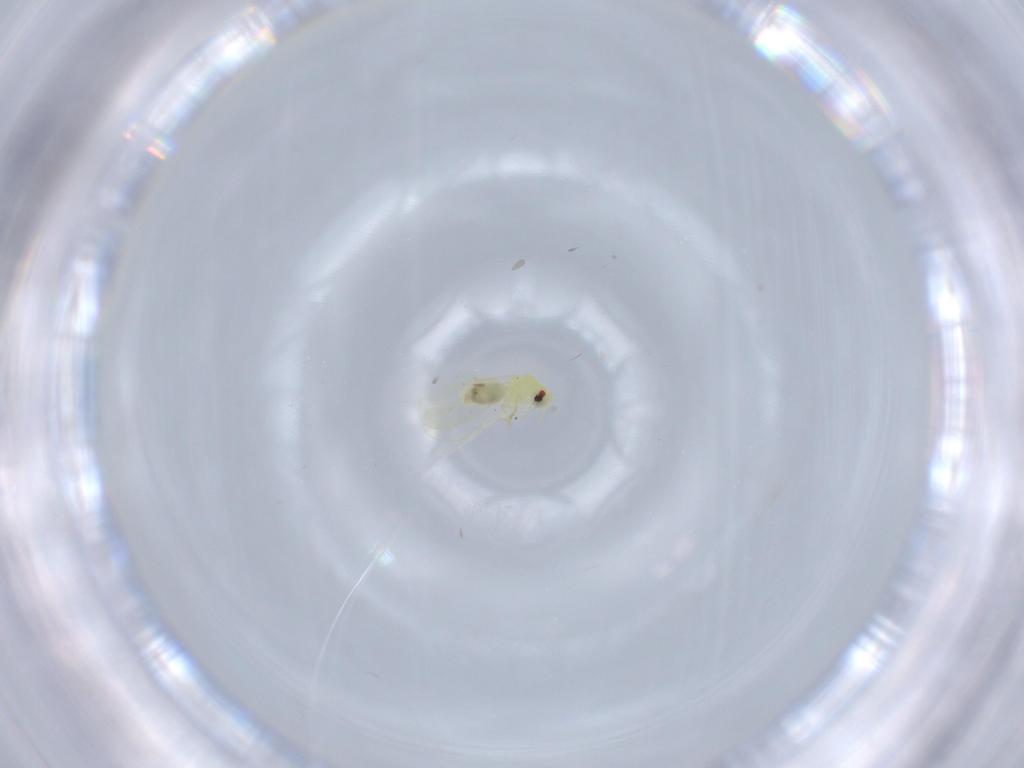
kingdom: Animalia
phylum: Arthropoda
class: Insecta
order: Hemiptera
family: Aleyrodidae
